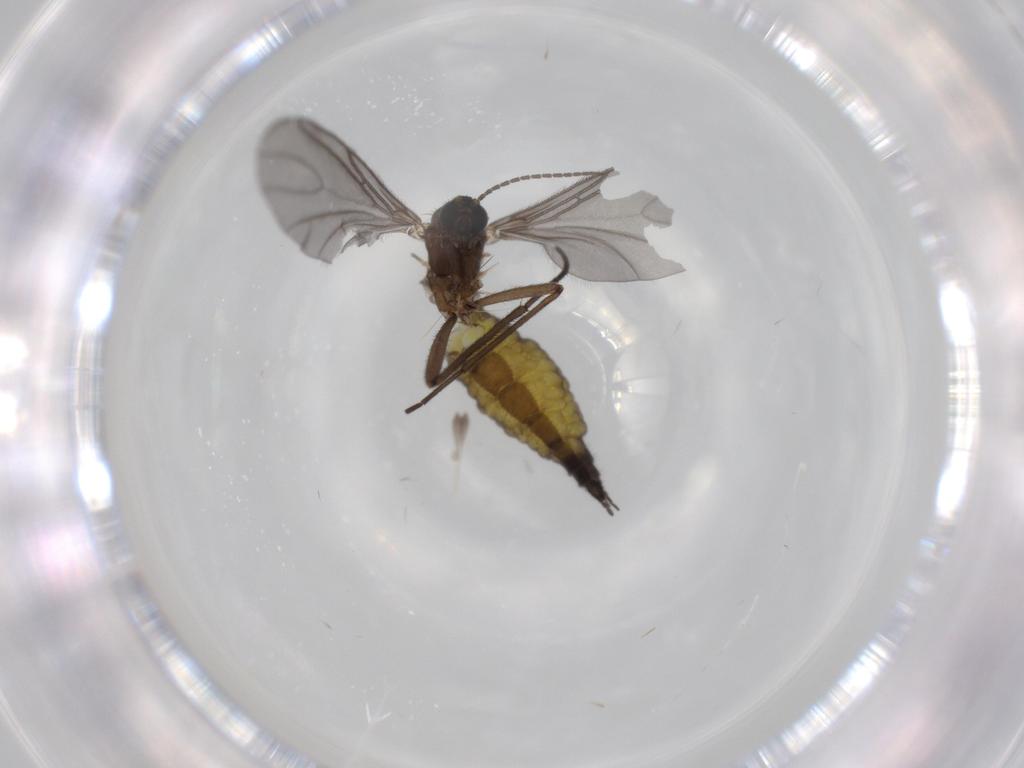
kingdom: Animalia
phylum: Arthropoda
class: Insecta
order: Diptera
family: Sciaridae
